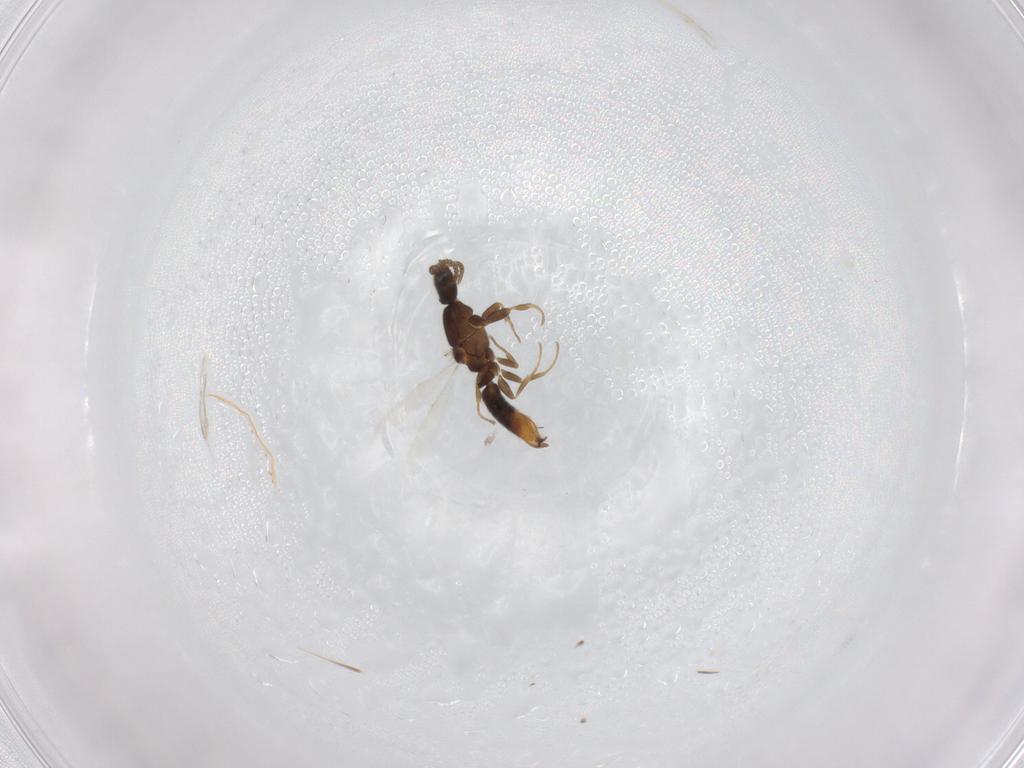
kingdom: Animalia
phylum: Arthropoda
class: Insecta
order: Hymenoptera
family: Formicidae
